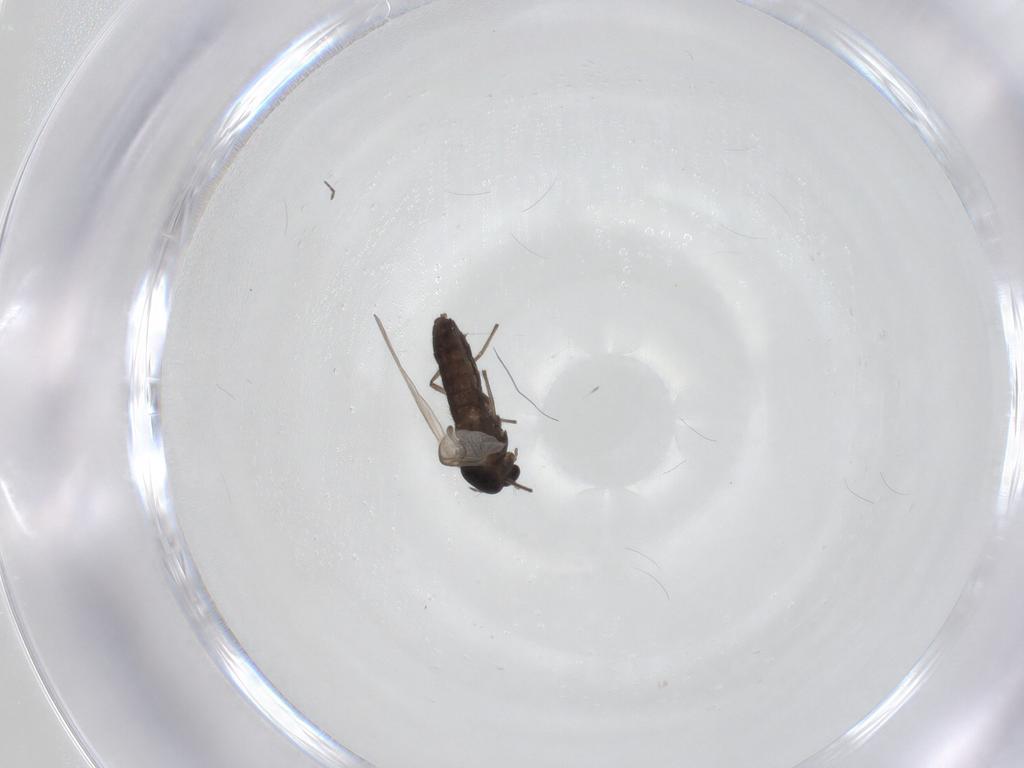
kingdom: Animalia
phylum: Arthropoda
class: Insecta
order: Diptera
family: Chironomidae
